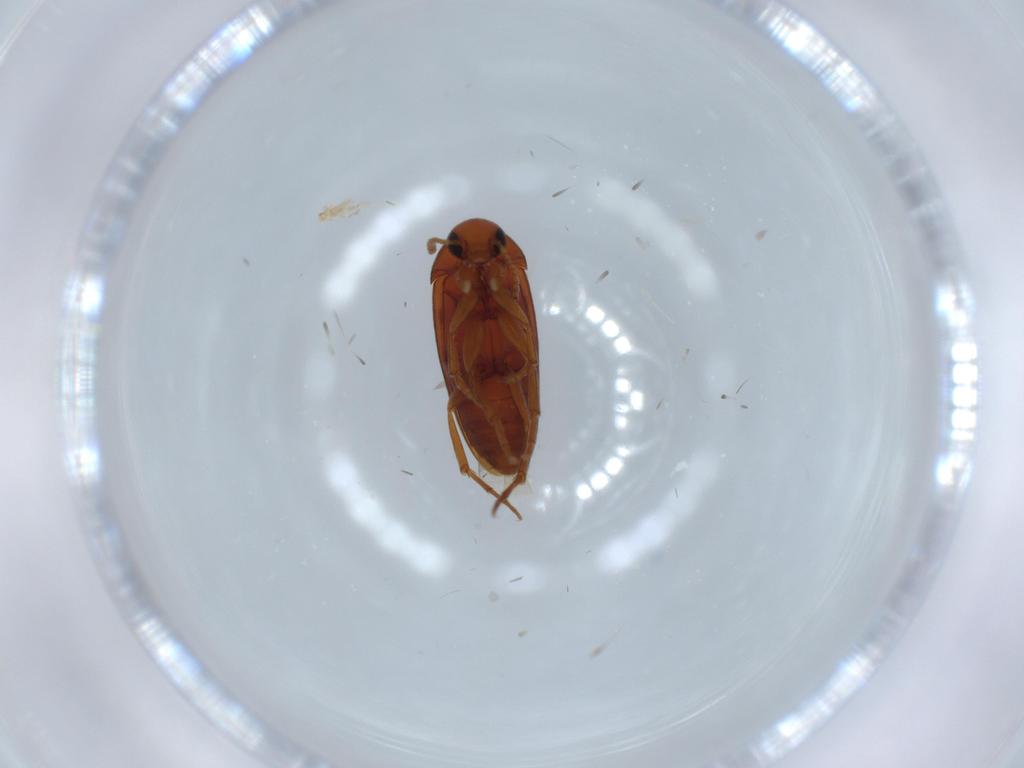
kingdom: Animalia
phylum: Arthropoda
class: Insecta
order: Coleoptera
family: Scraptiidae
